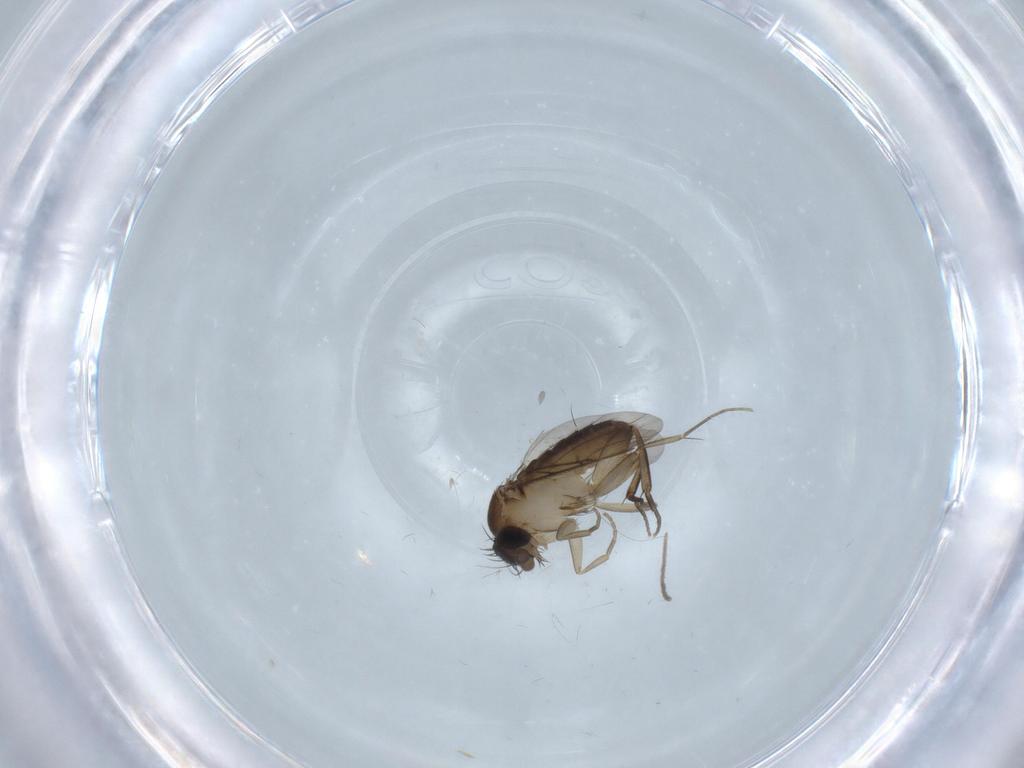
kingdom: Animalia
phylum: Arthropoda
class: Insecta
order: Diptera
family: Phoridae
